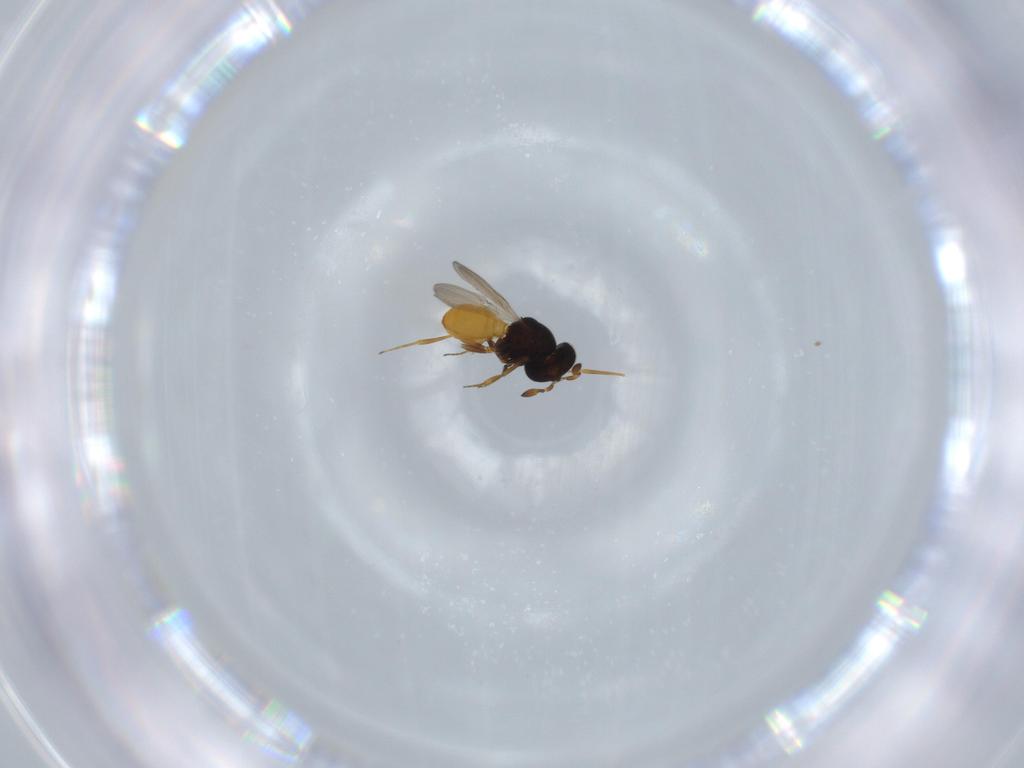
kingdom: Animalia
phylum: Arthropoda
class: Insecta
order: Hymenoptera
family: Scelionidae
